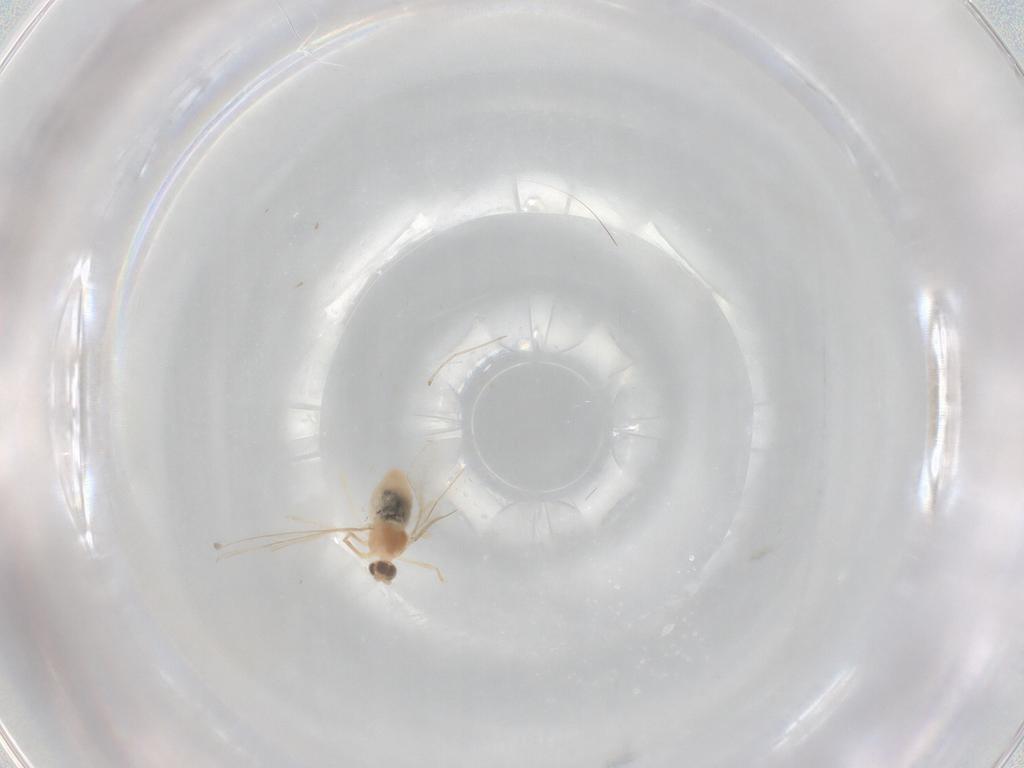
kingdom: Animalia
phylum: Arthropoda
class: Insecta
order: Diptera
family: Cecidomyiidae
